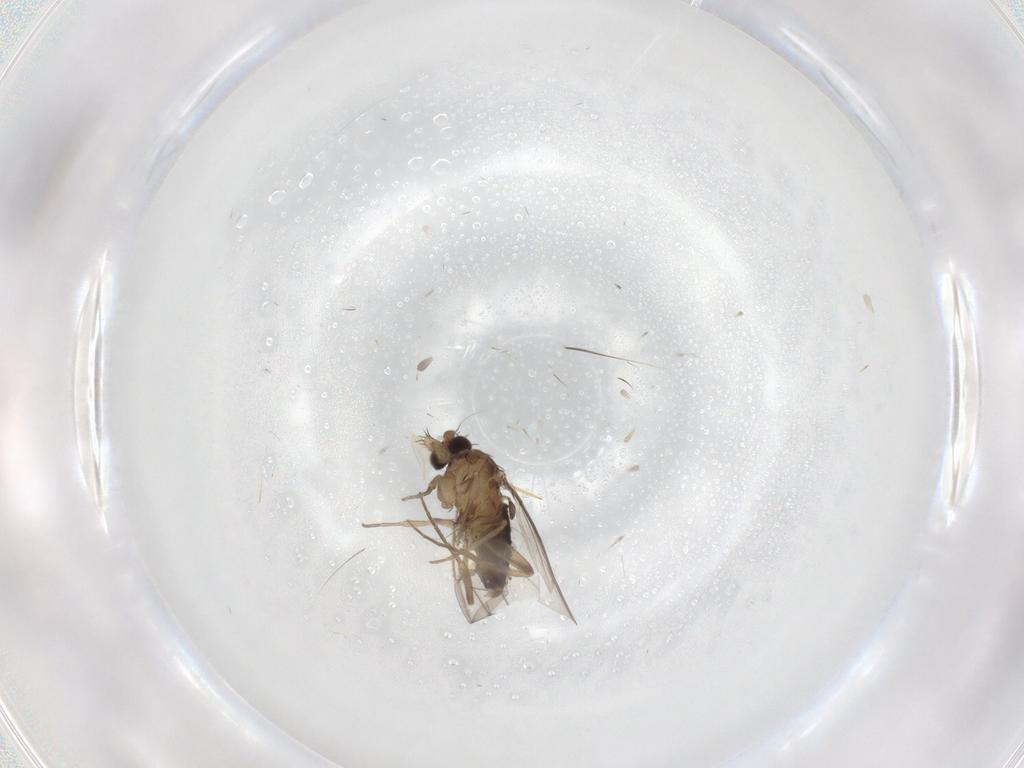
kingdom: Animalia
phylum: Arthropoda
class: Insecta
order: Diptera
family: Chironomidae
